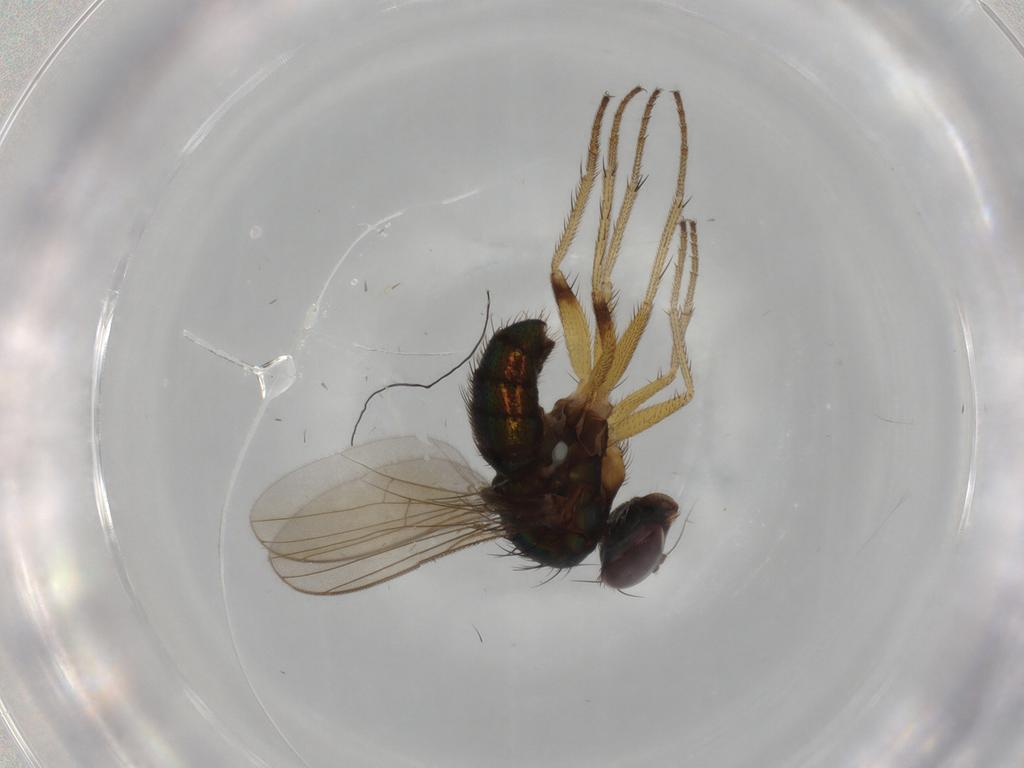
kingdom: Animalia
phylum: Arthropoda
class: Insecta
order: Diptera
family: Dolichopodidae
